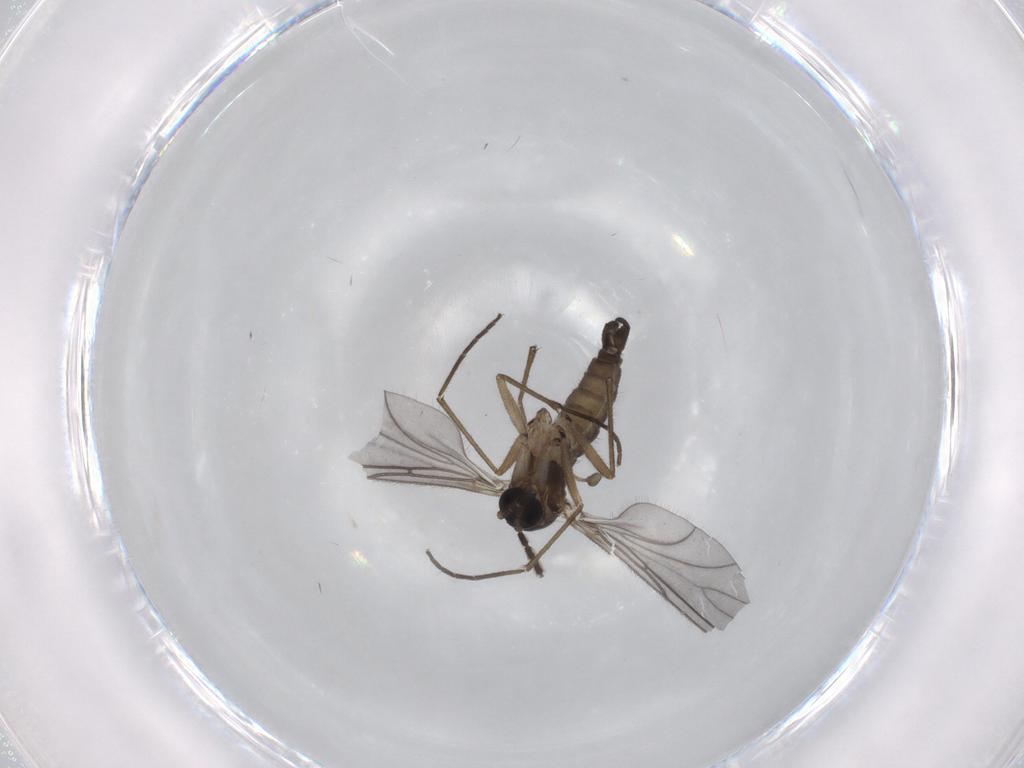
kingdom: Animalia
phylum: Arthropoda
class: Insecta
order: Diptera
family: Sciaridae
